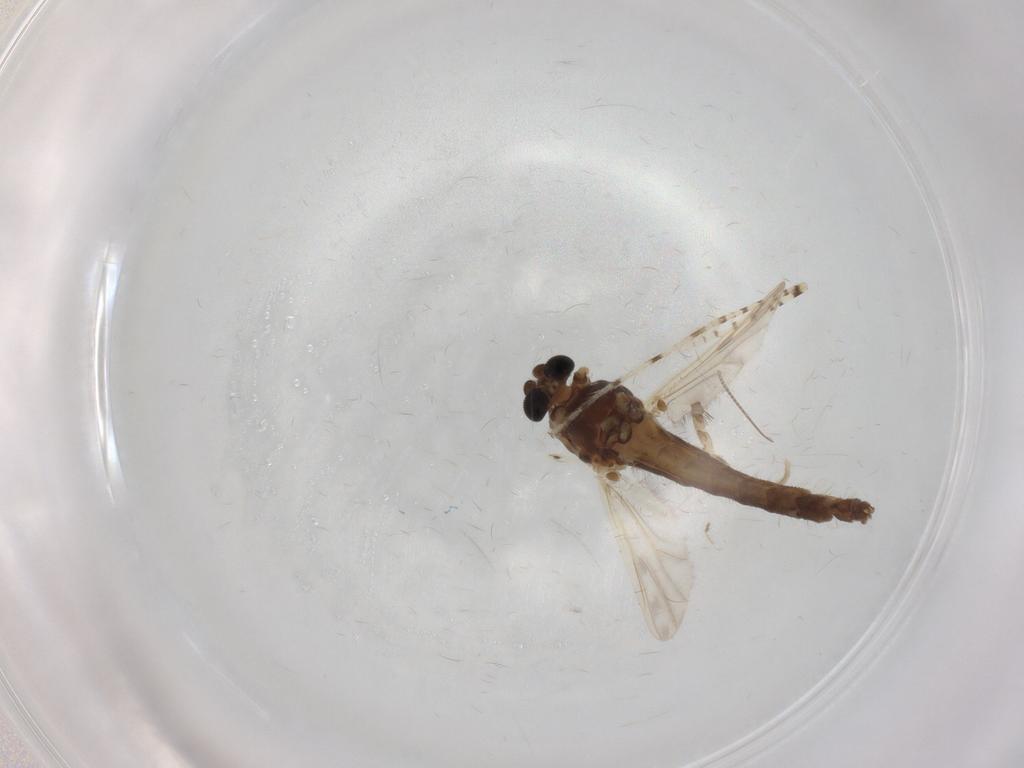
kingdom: Animalia
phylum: Arthropoda
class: Insecta
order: Diptera
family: Chironomidae
